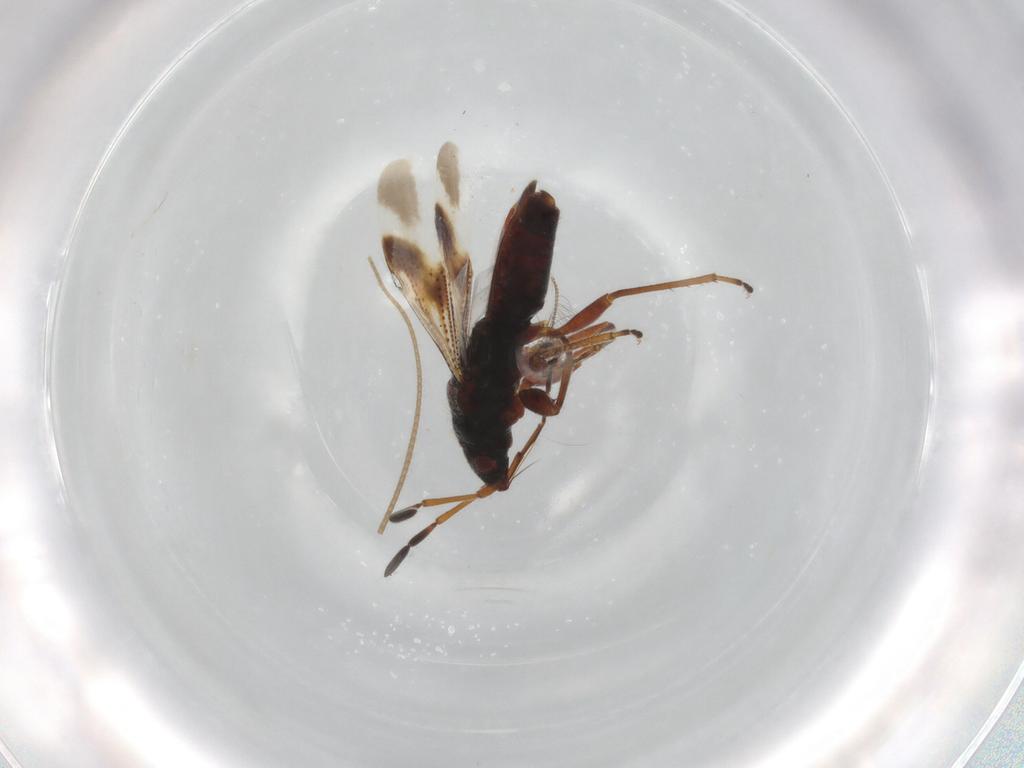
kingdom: Animalia
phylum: Arthropoda
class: Insecta
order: Hemiptera
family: Rhyparochromidae
